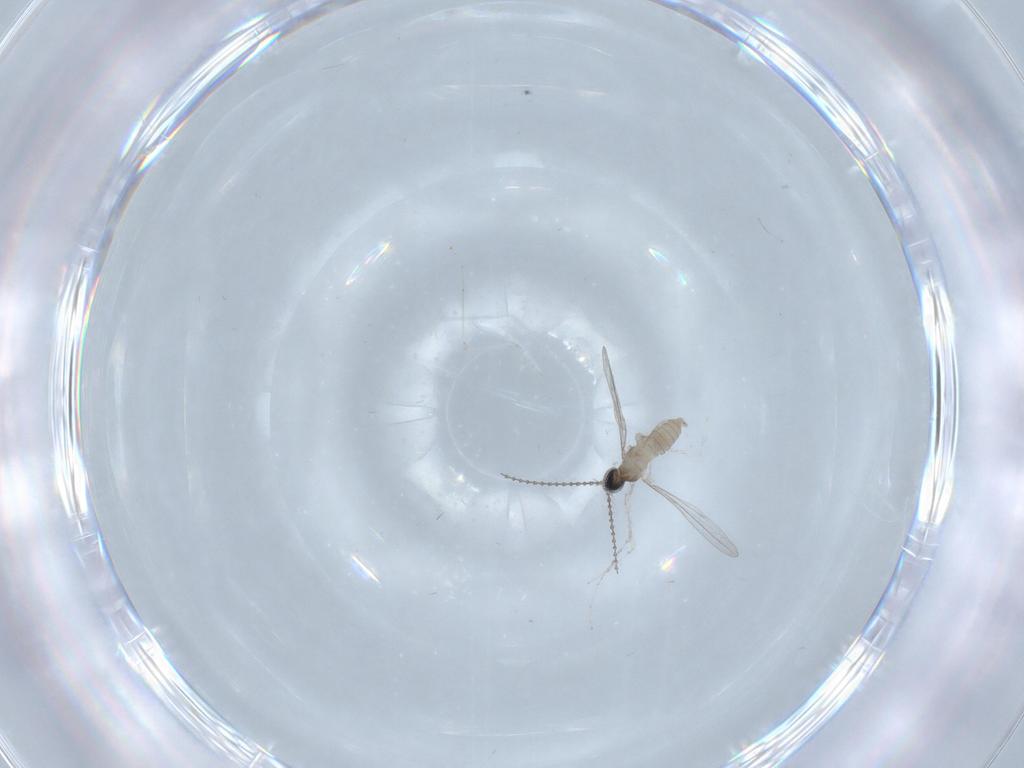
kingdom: Animalia
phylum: Arthropoda
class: Insecta
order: Diptera
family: Cecidomyiidae
